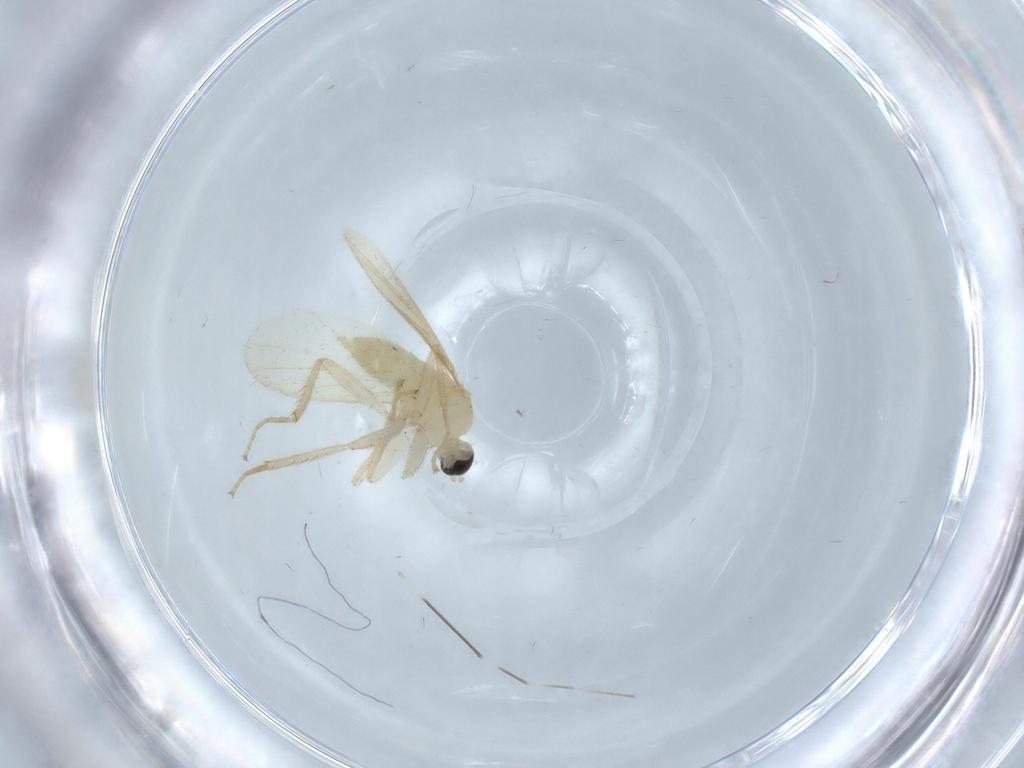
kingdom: Animalia
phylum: Arthropoda
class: Insecta
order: Diptera
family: Hybotidae
